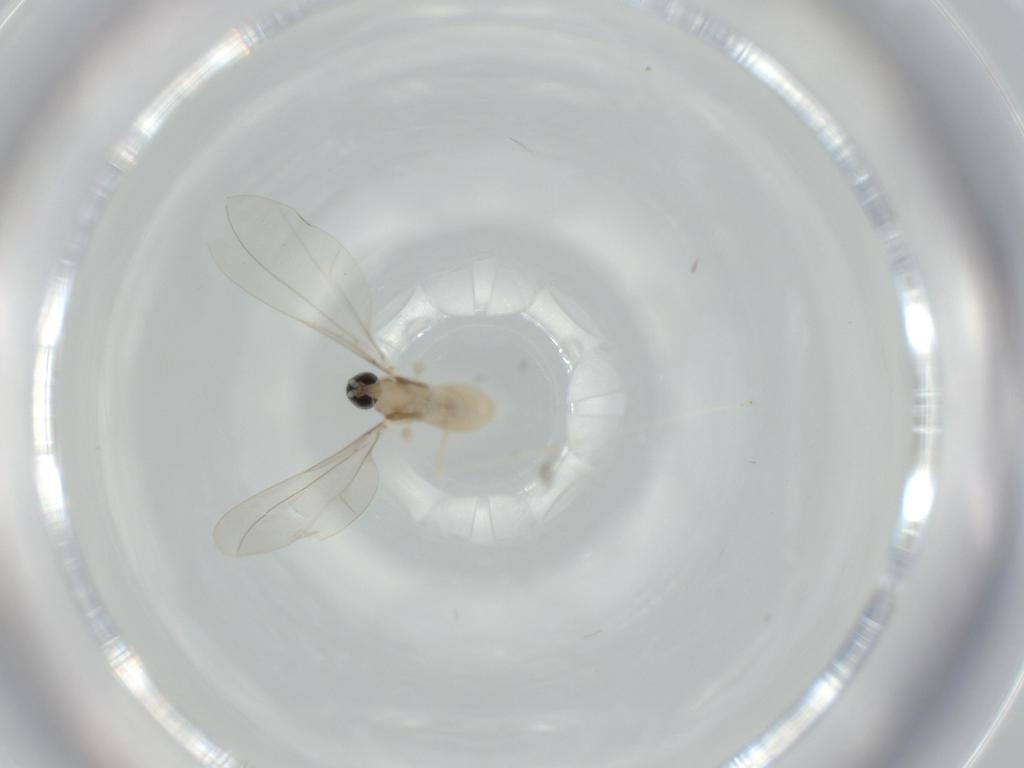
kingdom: Animalia
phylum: Arthropoda
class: Insecta
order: Diptera
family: Cecidomyiidae
